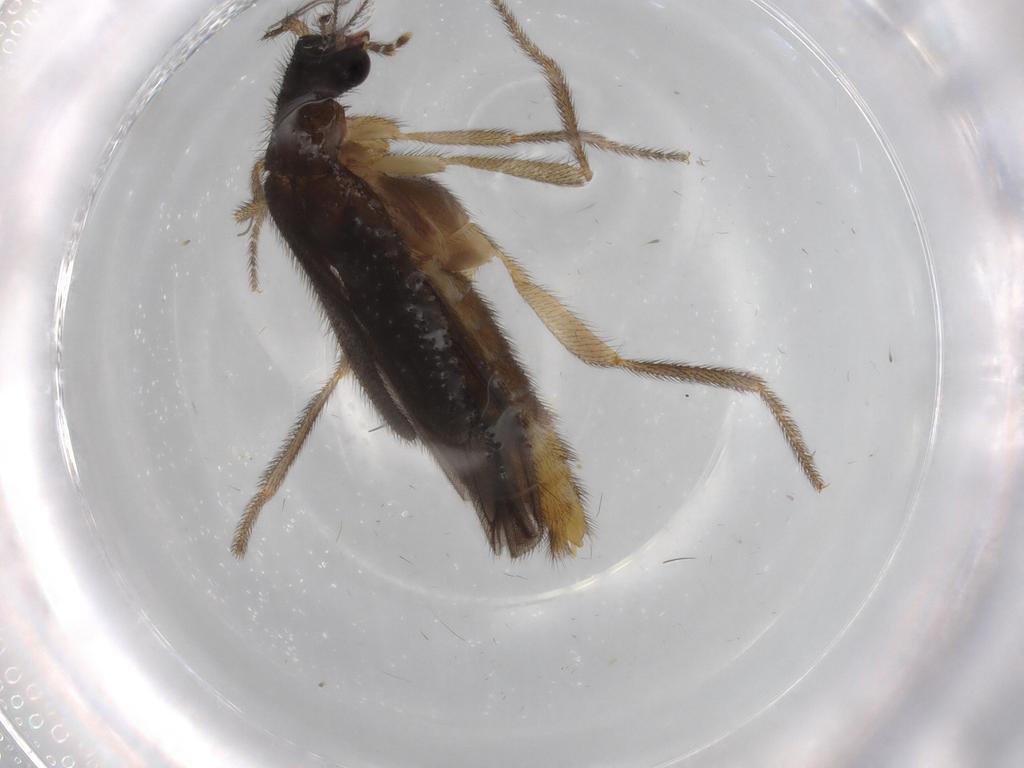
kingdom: Animalia
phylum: Arthropoda
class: Insecta
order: Coleoptera
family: Phengodidae
